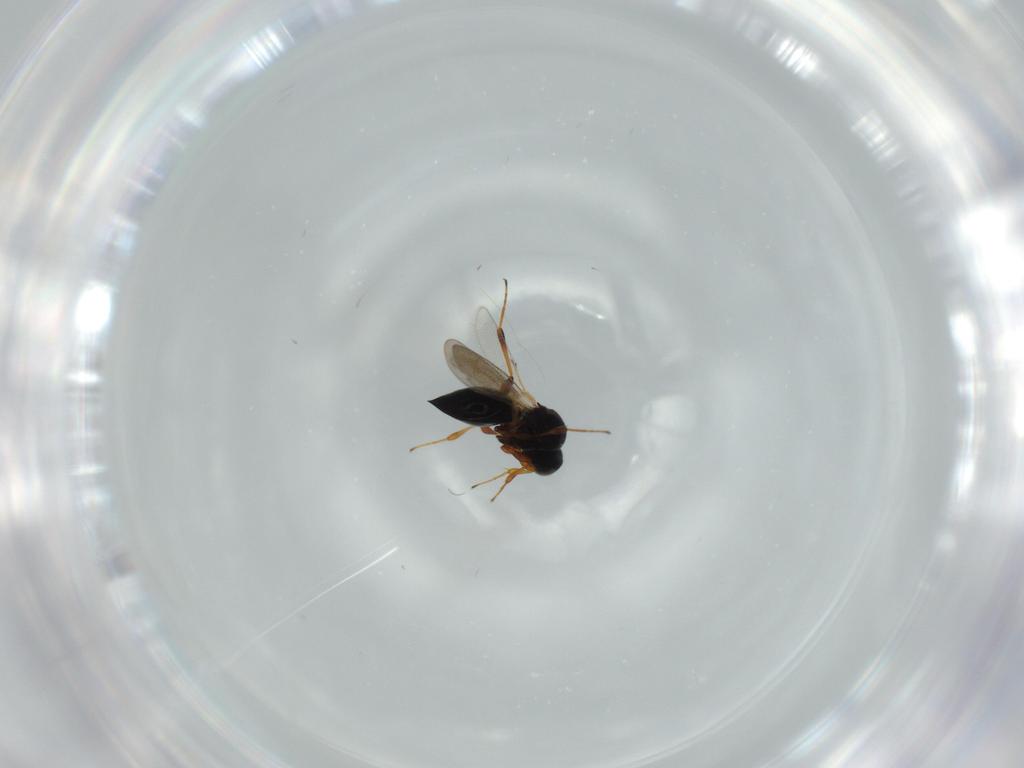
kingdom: Animalia
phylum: Arthropoda
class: Insecta
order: Hymenoptera
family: Platygastridae
